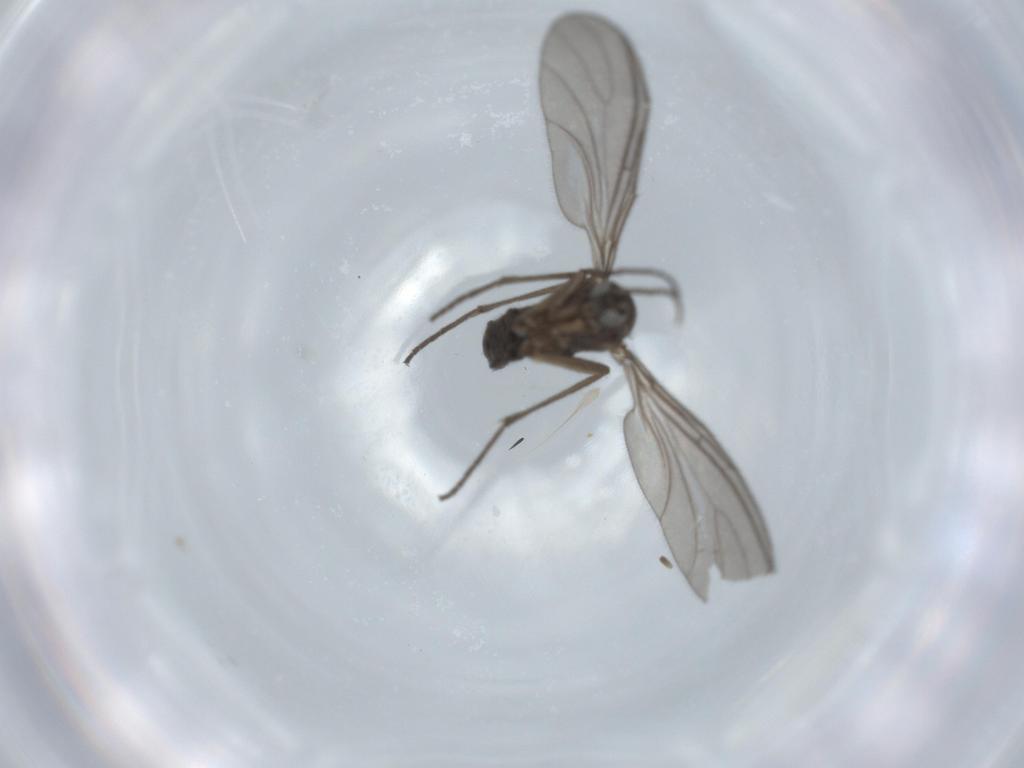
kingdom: Animalia
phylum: Arthropoda
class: Insecta
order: Diptera
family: Sciaridae
